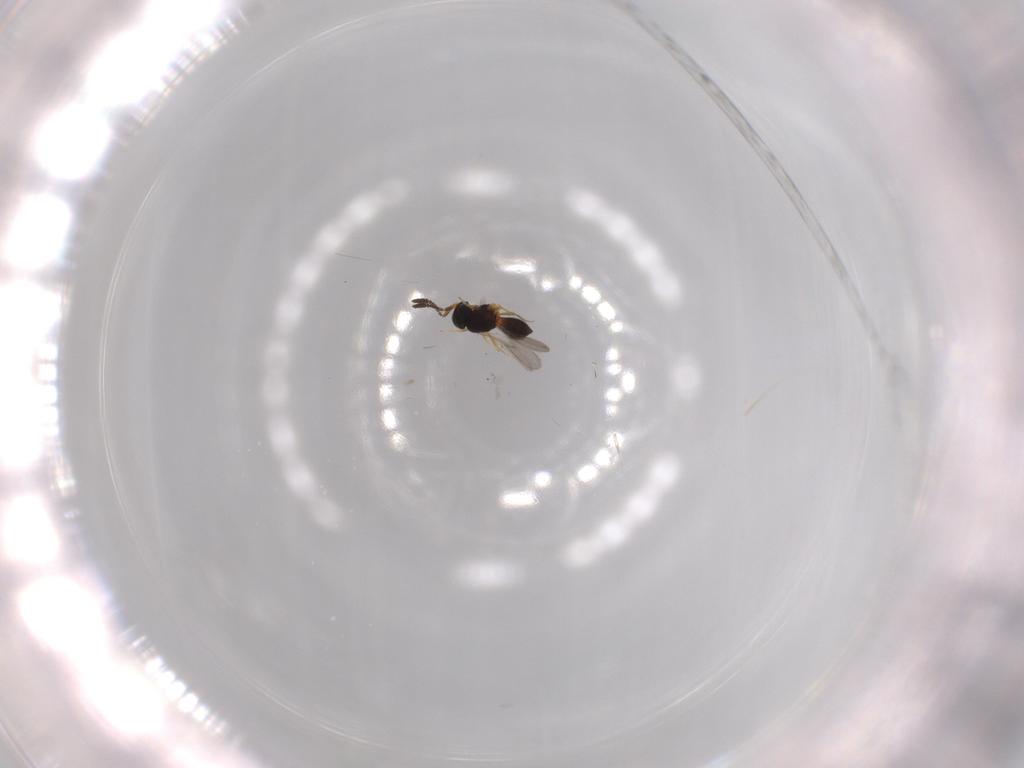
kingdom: Animalia
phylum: Arthropoda
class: Insecta
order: Hymenoptera
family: Scelionidae
